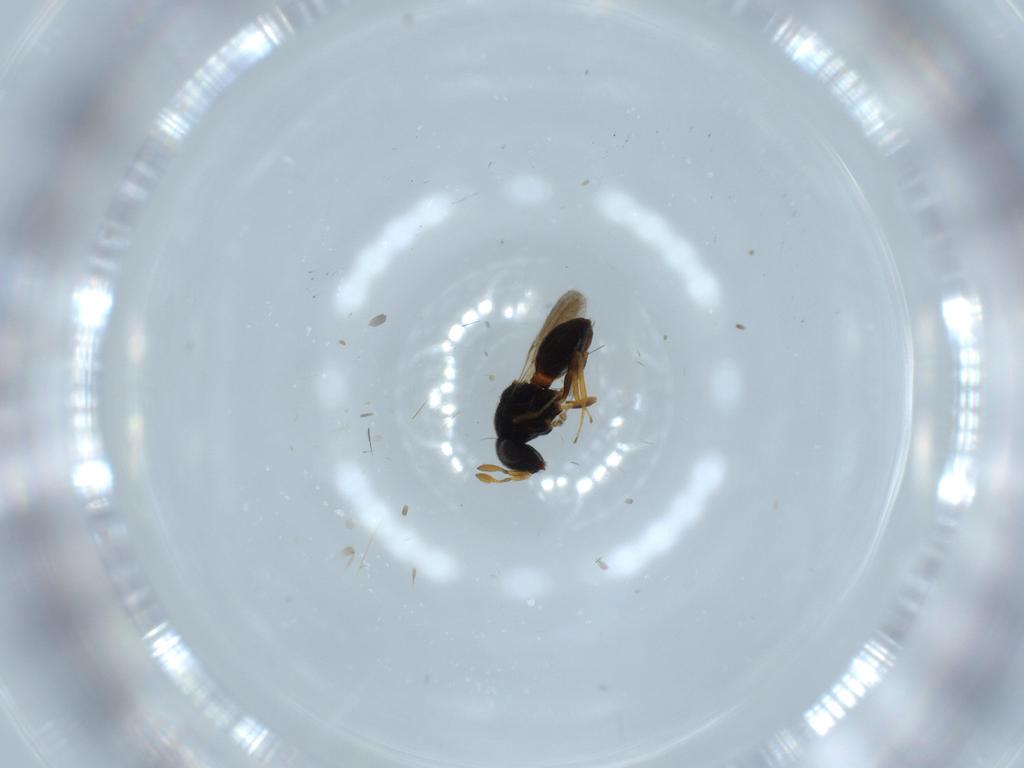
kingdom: Animalia
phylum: Arthropoda
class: Insecta
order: Hymenoptera
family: Scelionidae
